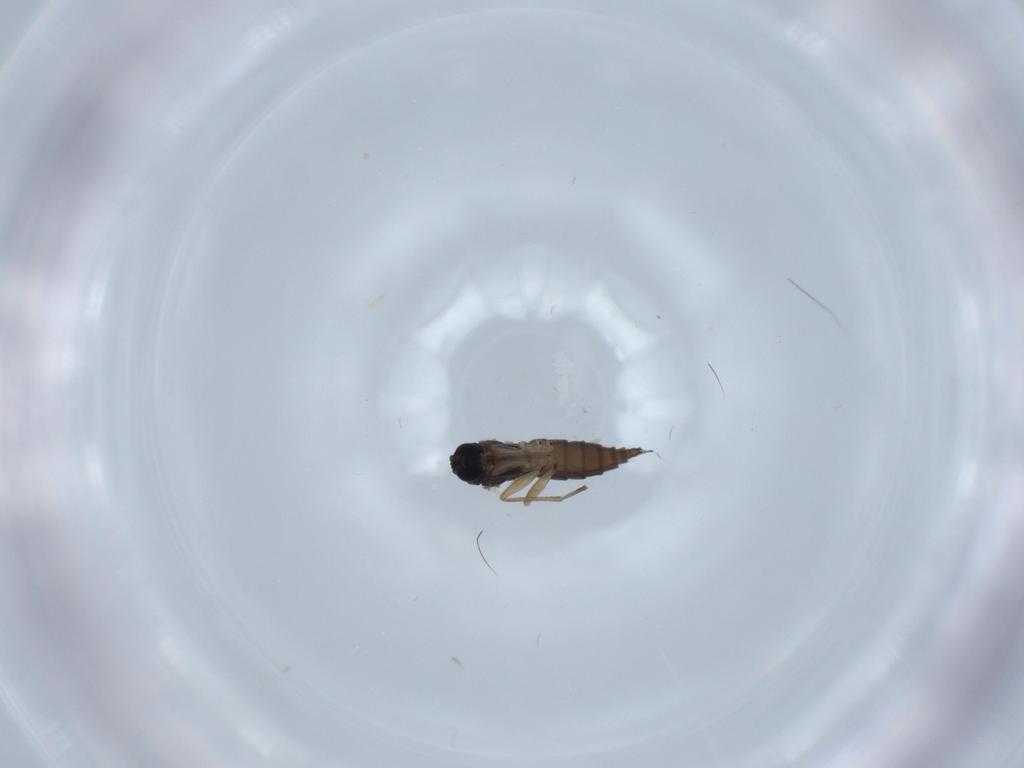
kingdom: Animalia
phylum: Arthropoda
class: Insecta
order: Diptera
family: Sciaridae
